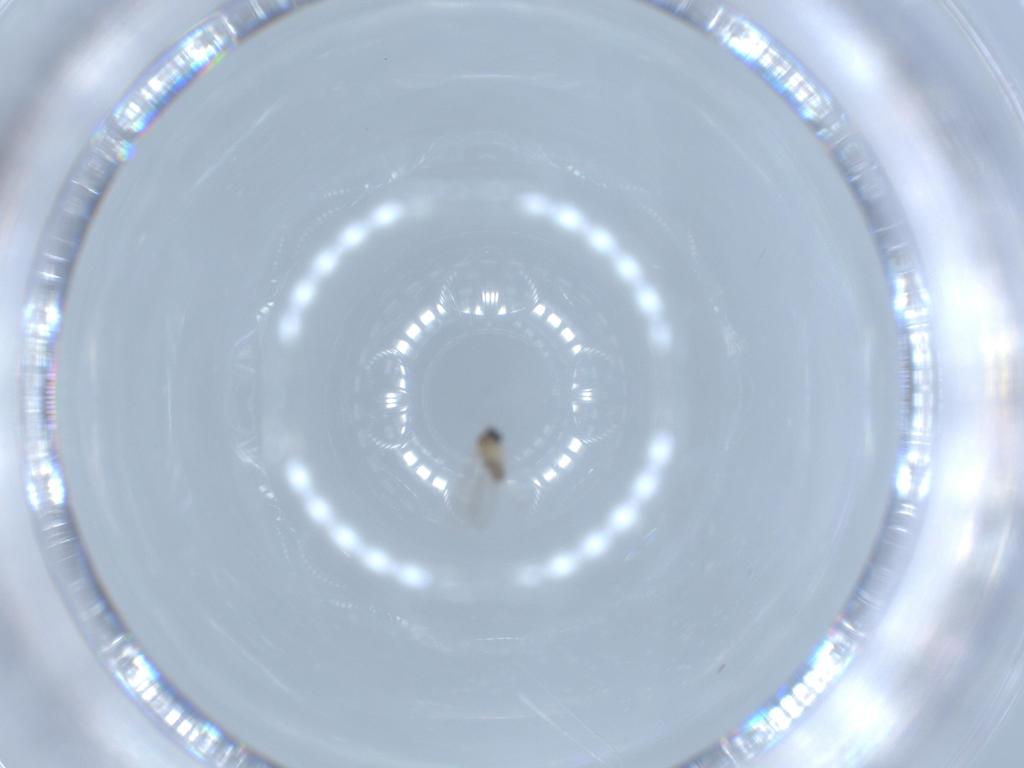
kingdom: Animalia
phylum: Arthropoda
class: Insecta
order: Diptera
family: Cecidomyiidae
